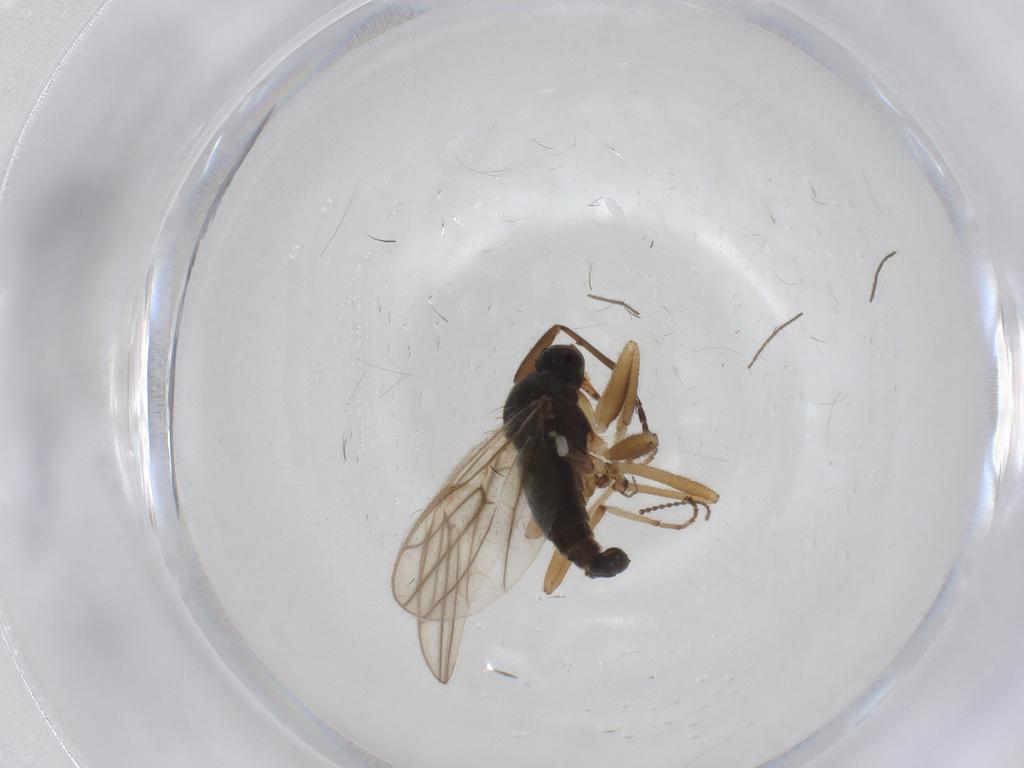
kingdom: Animalia
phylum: Arthropoda
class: Insecta
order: Diptera
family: Hybotidae
